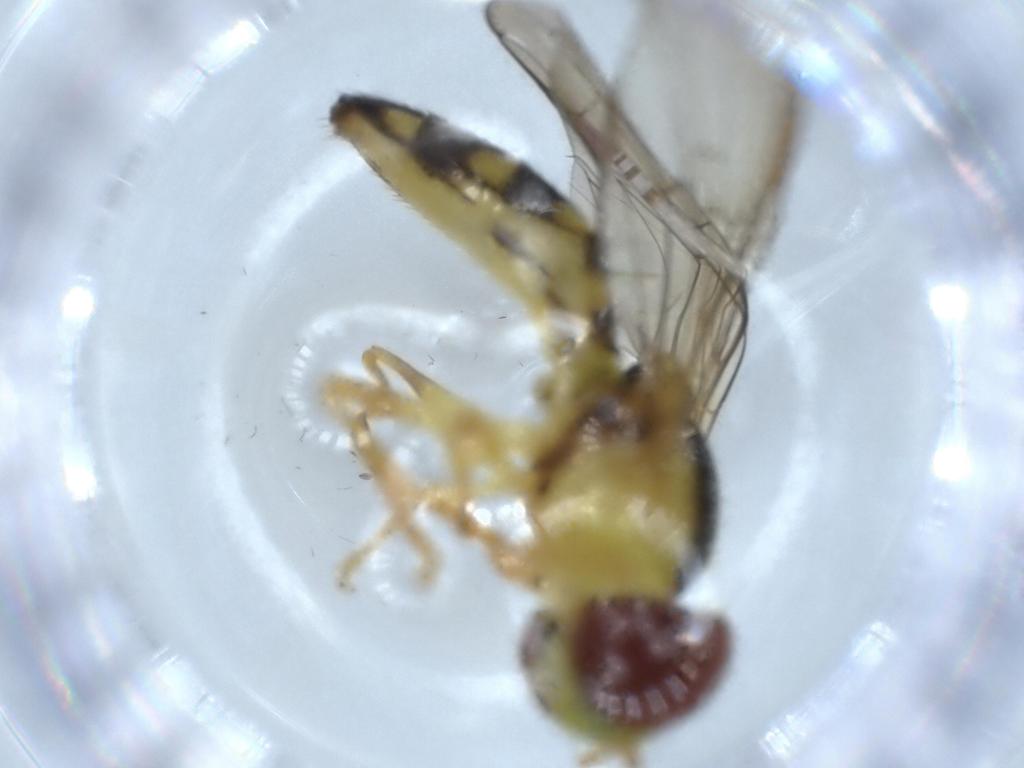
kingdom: Animalia
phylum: Arthropoda
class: Insecta
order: Diptera
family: Syrphidae
